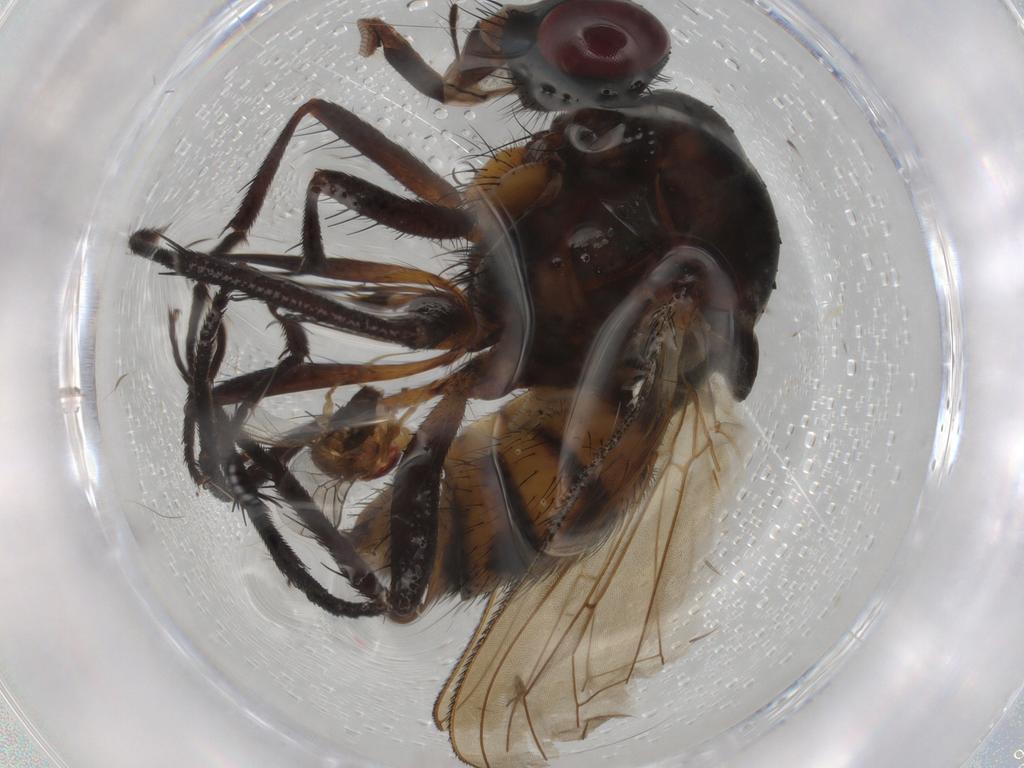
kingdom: Animalia
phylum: Arthropoda
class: Insecta
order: Diptera
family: Chloropidae
